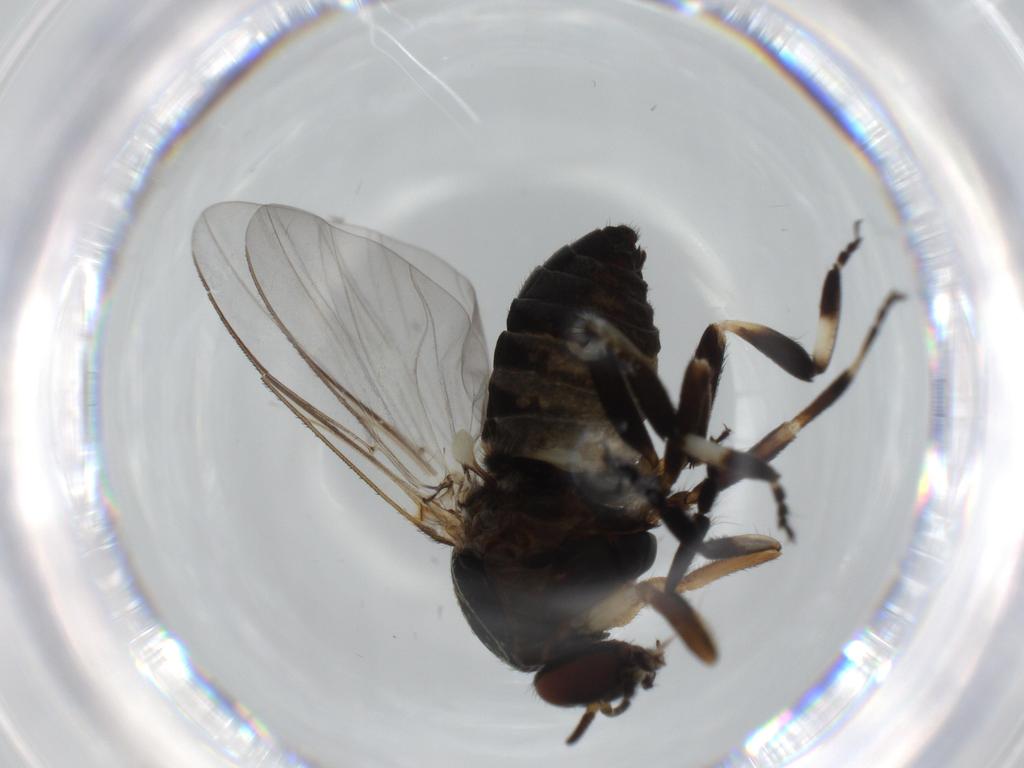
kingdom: Animalia
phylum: Arthropoda
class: Insecta
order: Diptera
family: Sciaridae
